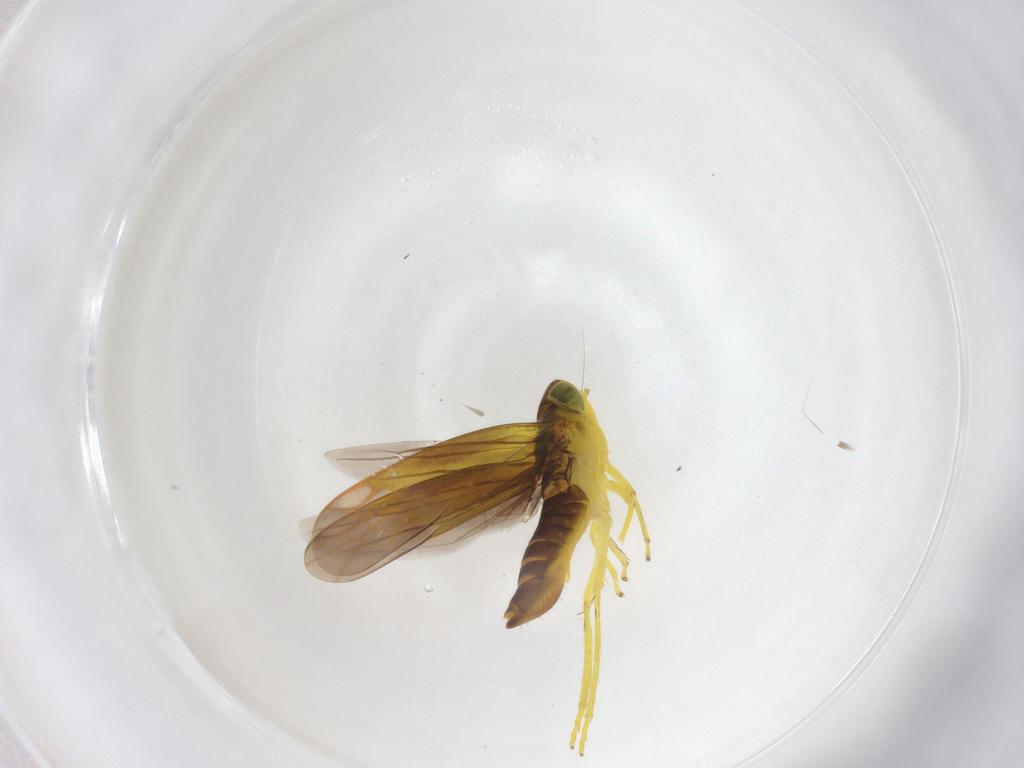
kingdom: Animalia
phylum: Arthropoda
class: Insecta
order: Hemiptera
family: Cicadellidae
